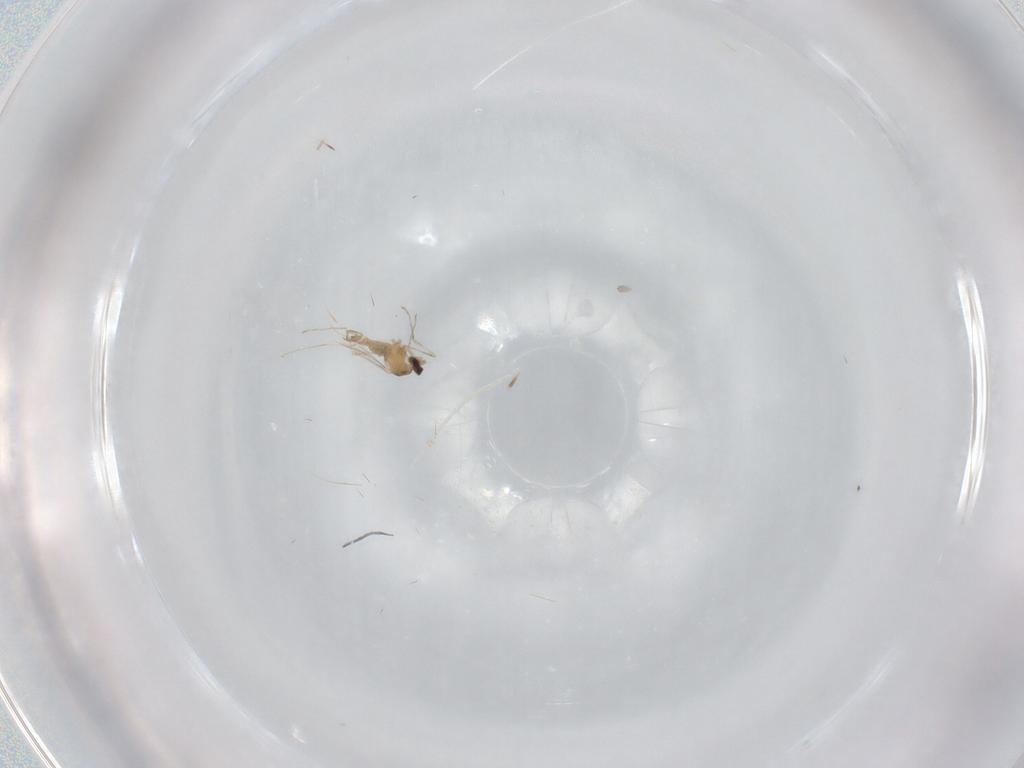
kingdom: Animalia
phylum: Arthropoda
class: Insecta
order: Diptera
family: Cecidomyiidae
